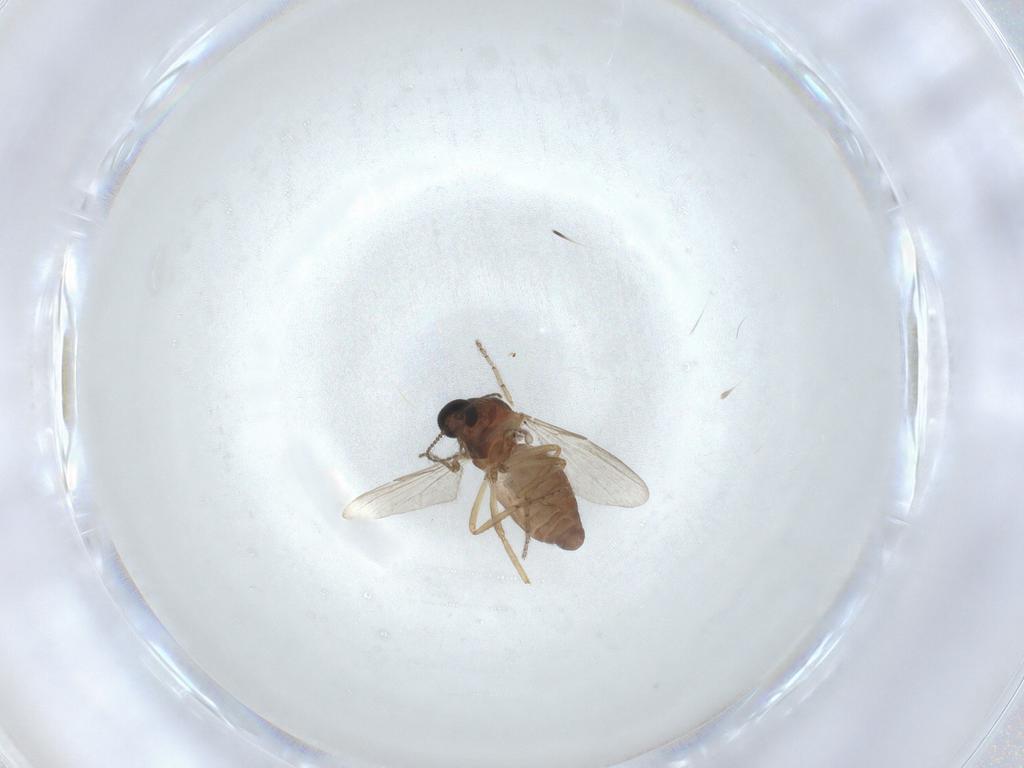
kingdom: Animalia
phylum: Arthropoda
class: Insecta
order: Diptera
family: Ceratopogonidae
